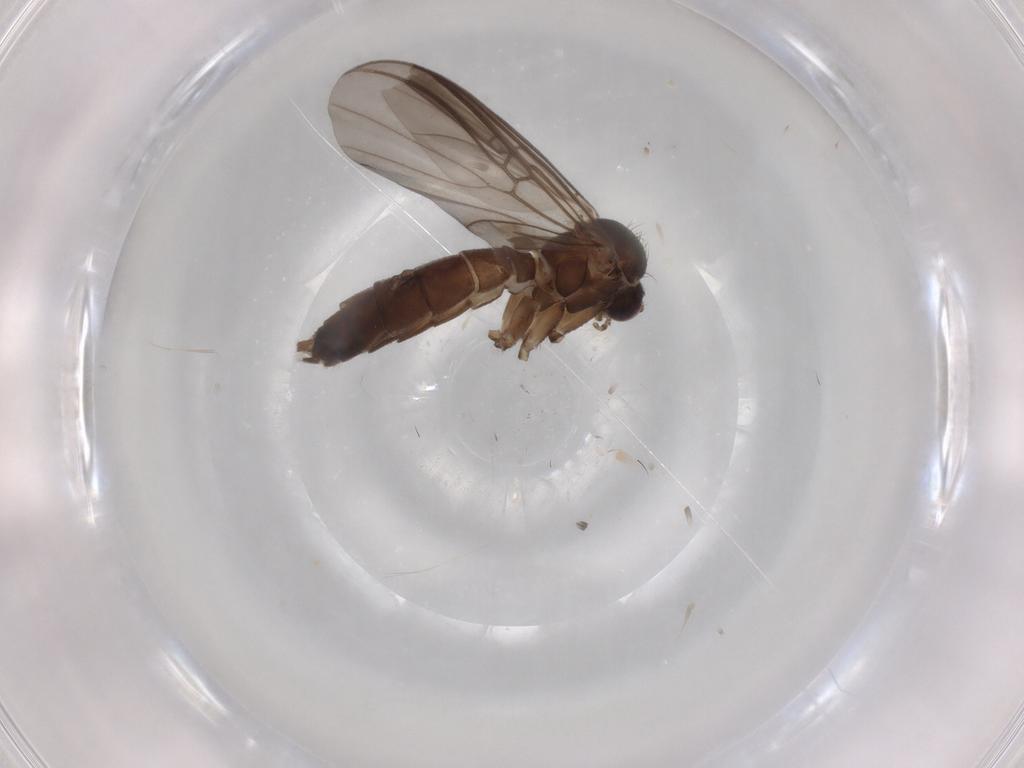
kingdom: Animalia
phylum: Arthropoda
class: Insecta
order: Diptera
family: Mycetophilidae
